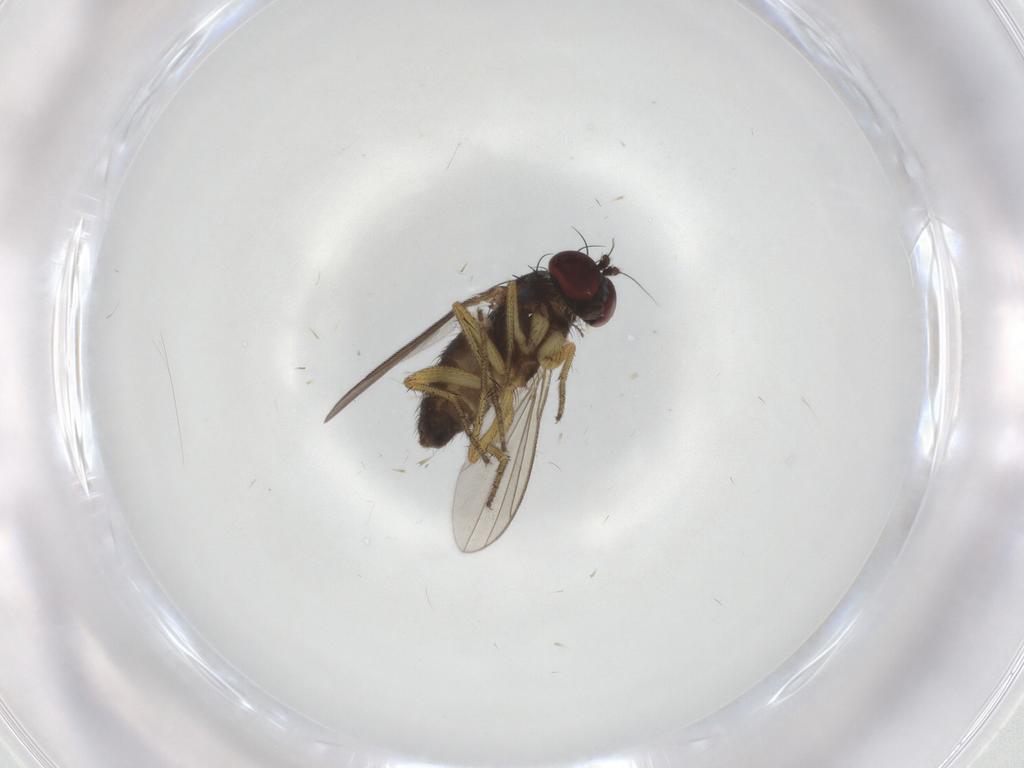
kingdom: Animalia
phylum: Arthropoda
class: Insecta
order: Diptera
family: Chironomidae
